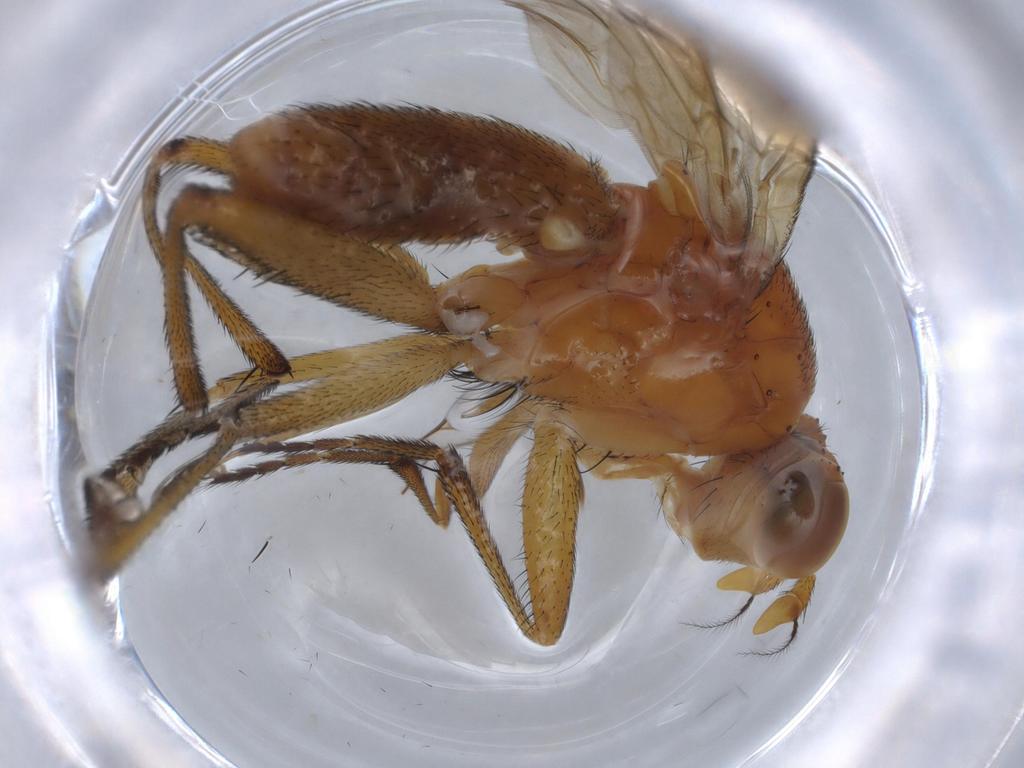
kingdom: Animalia
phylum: Arthropoda
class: Insecta
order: Diptera
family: Sciomyzidae
